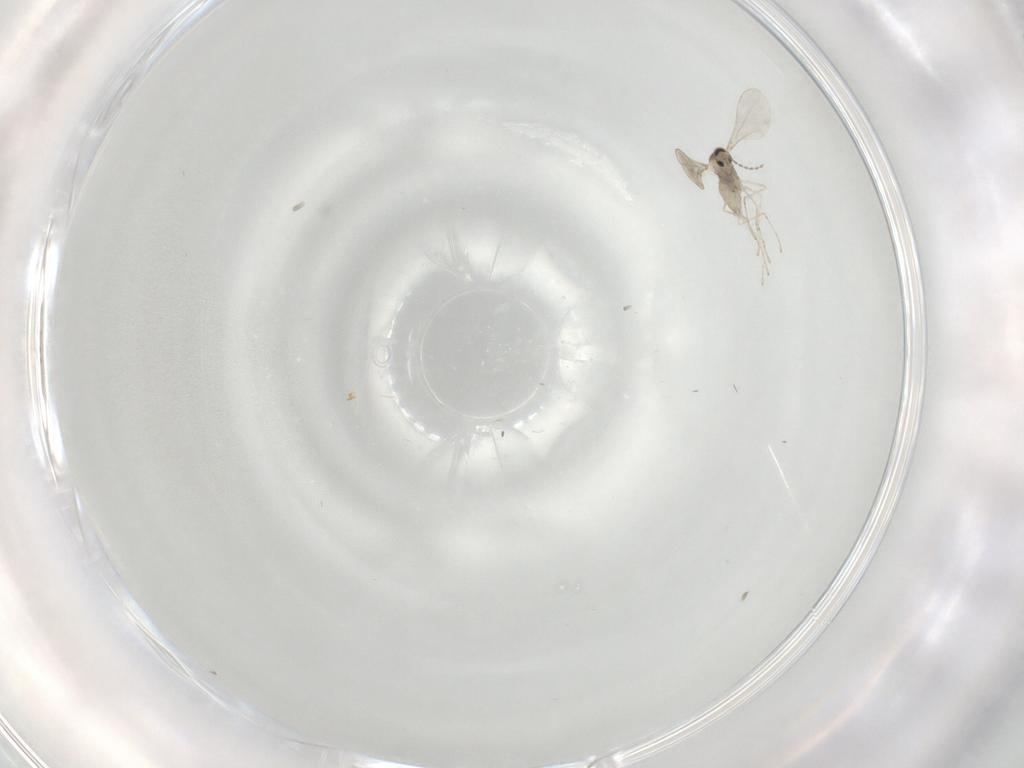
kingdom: Animalia
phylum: Arthropoda
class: Insecta
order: Diptera
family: Cecidomyiidae
